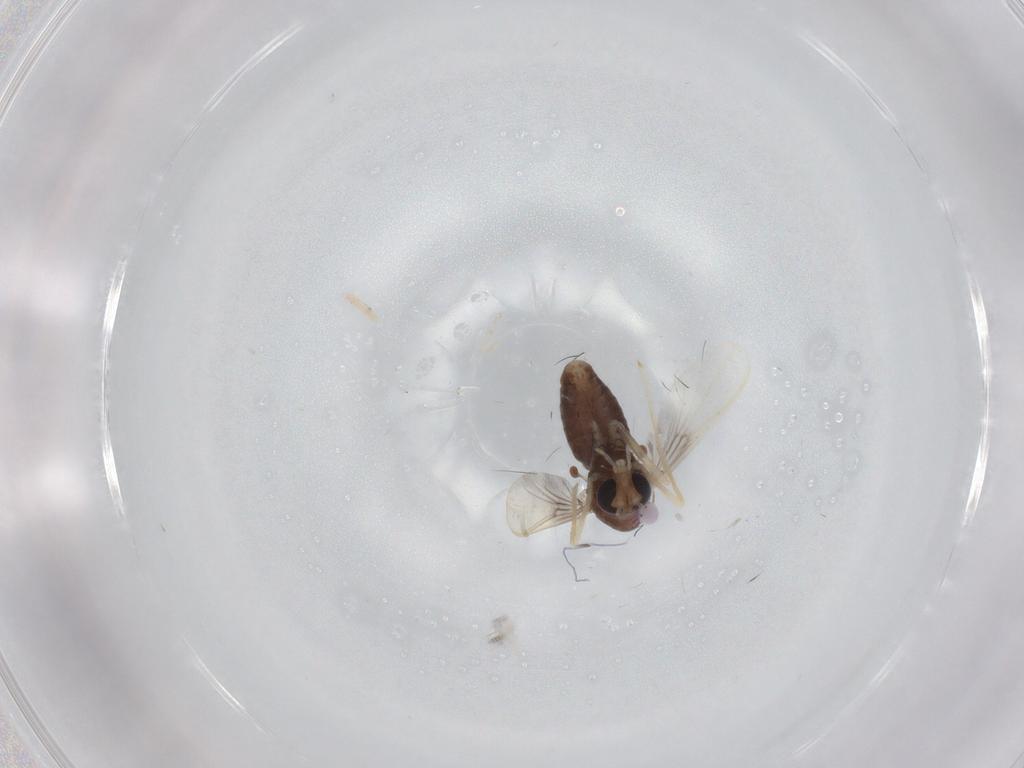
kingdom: Animalia
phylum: Arthropoda
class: Insecta
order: Diptera
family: Chironomidae
